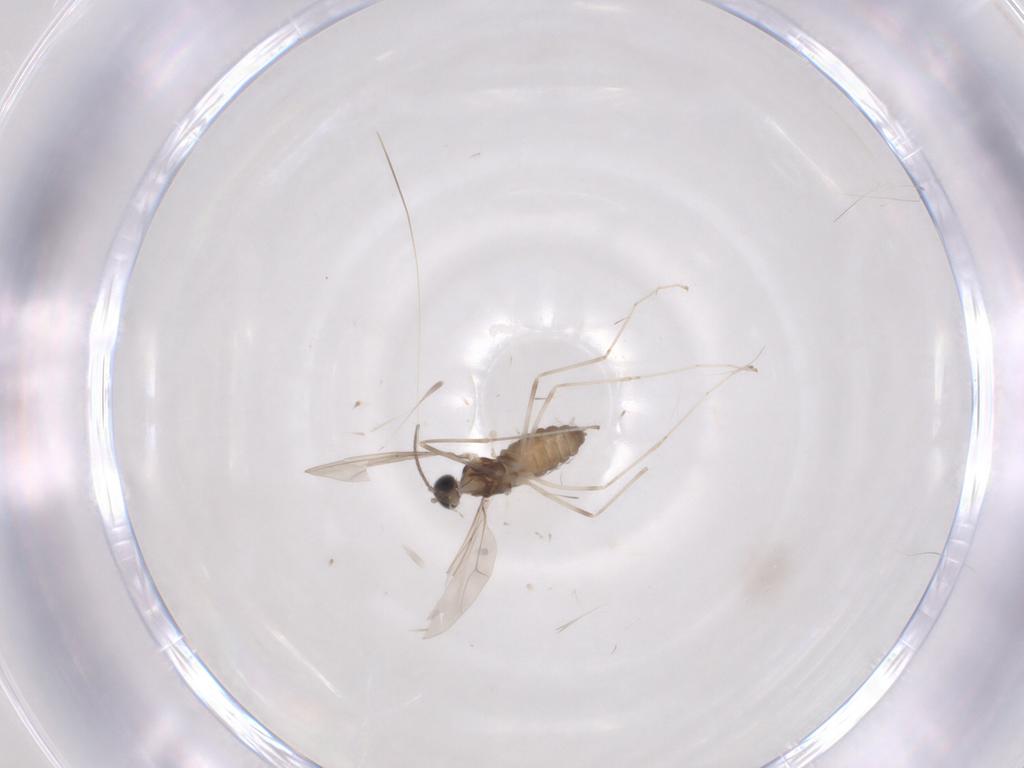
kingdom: Animalia
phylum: Arthropoda
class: Insecta
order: Diptera
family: Cecidomyiidae
